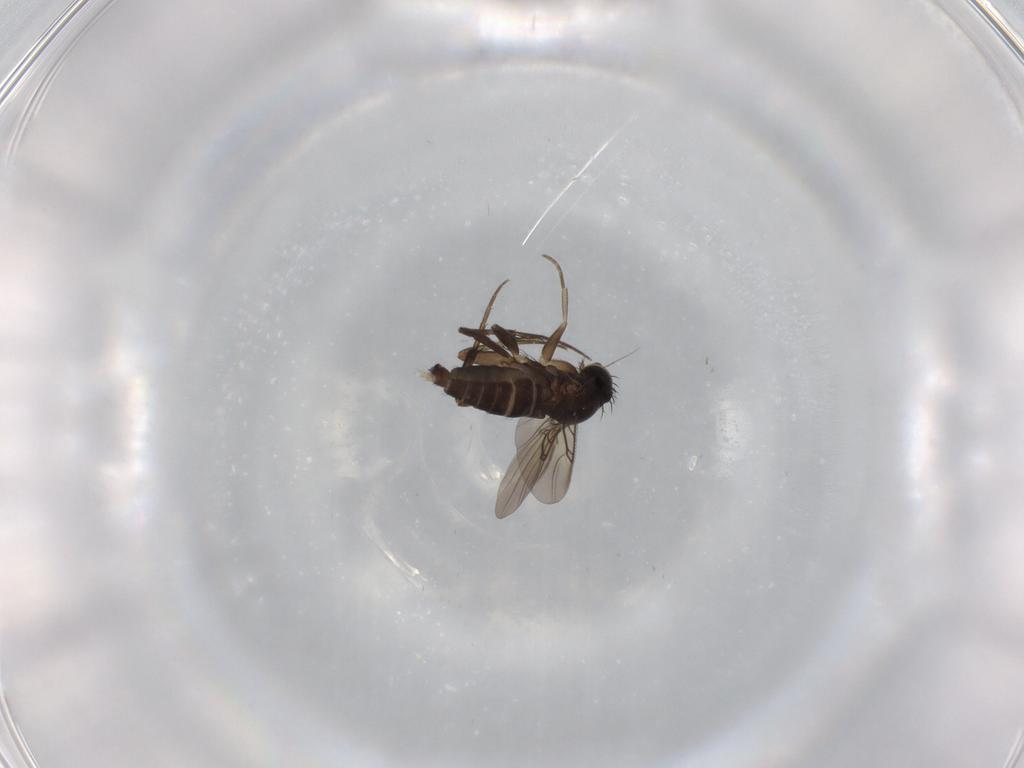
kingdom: Animalia
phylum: Arthropoda
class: Insecta
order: Diptera
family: Phoridae
